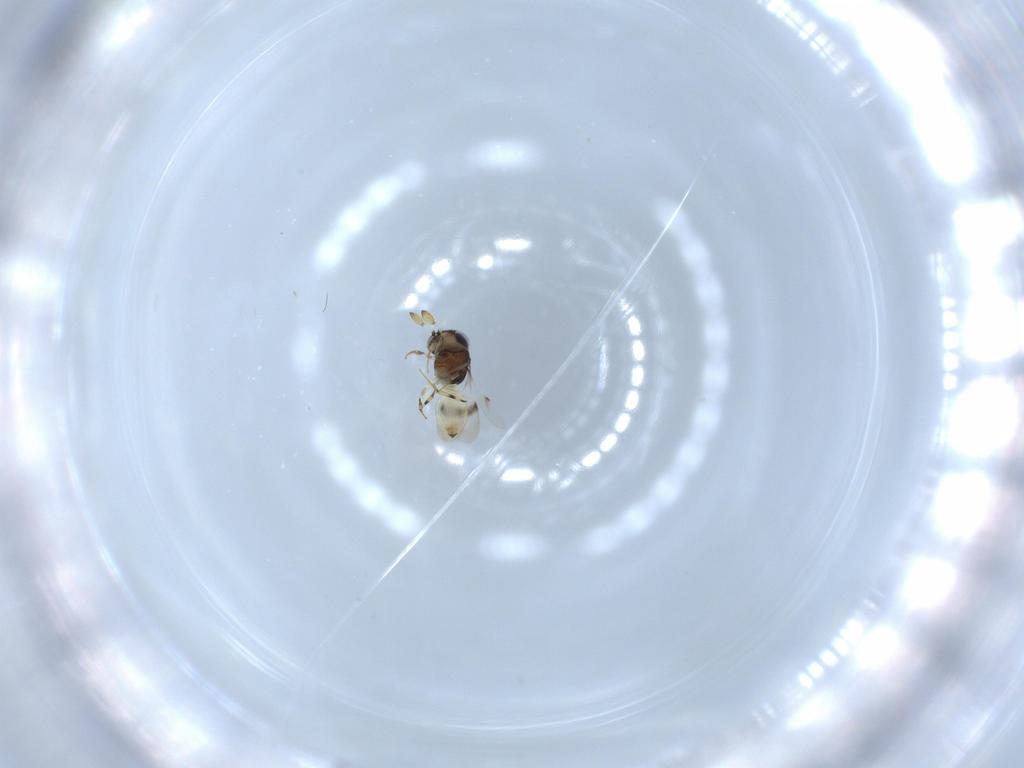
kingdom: Animalia
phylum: Arthropoda
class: Insecta
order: Hymenoptera
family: Scelionidae
